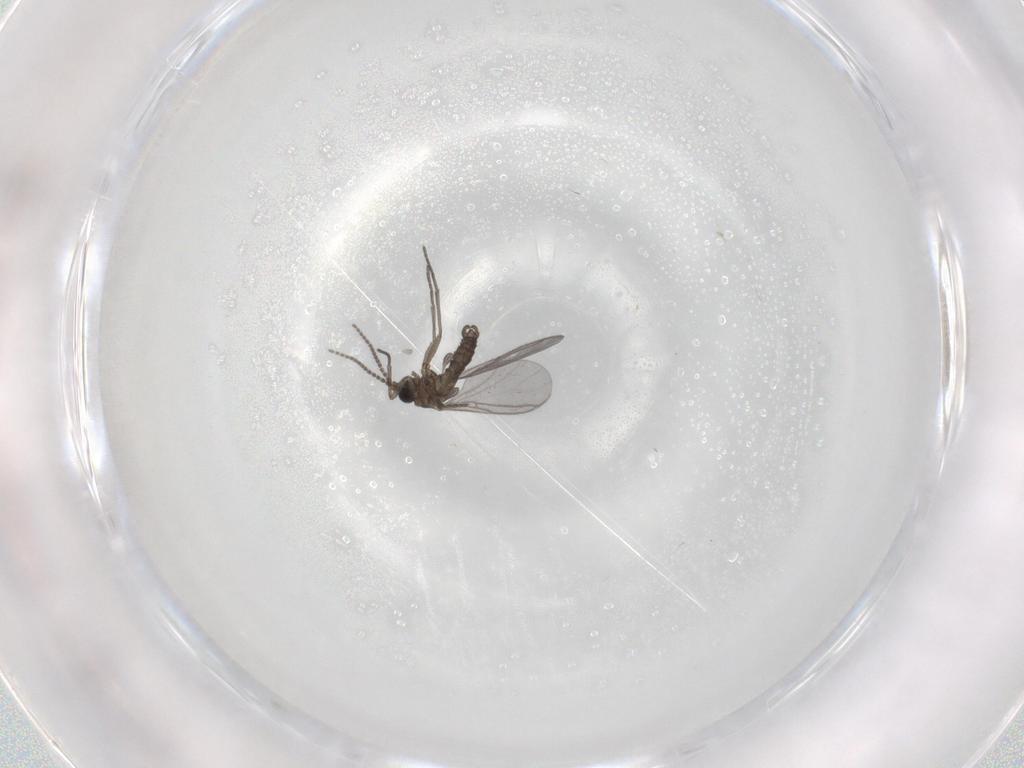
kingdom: Animalia
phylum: Arthropoda
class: Insecta
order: Diptera
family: Cecidomyiidae
